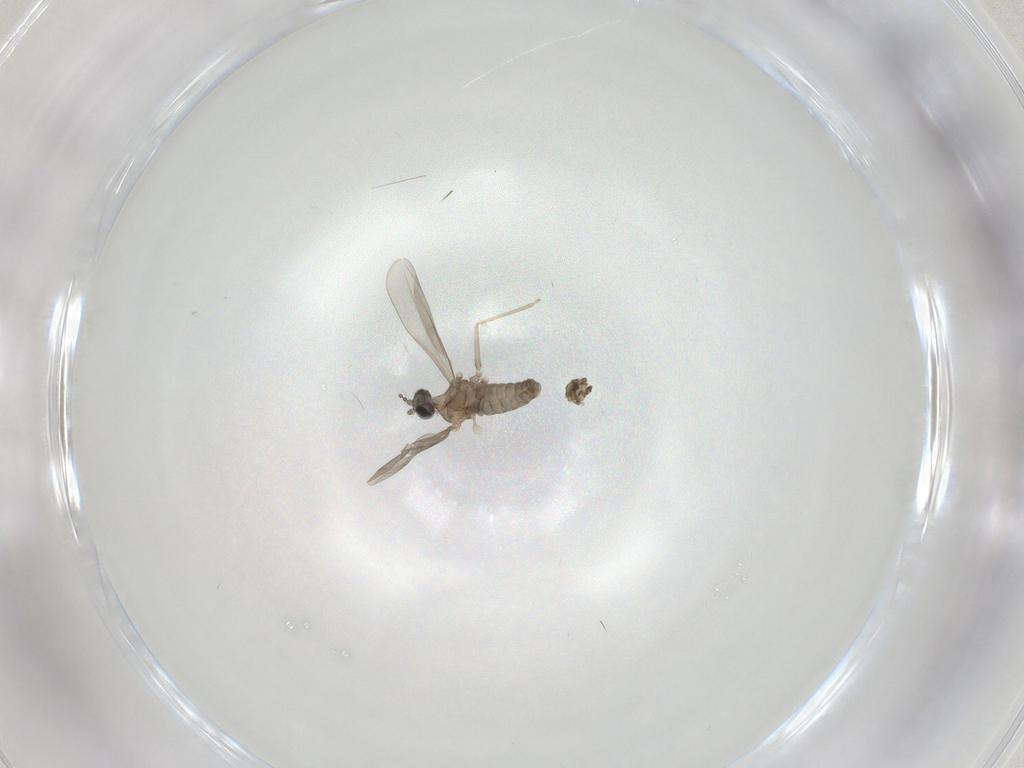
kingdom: Animalia
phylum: Arthropoda
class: Insecta
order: Diptera
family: Cecidomyiidae
